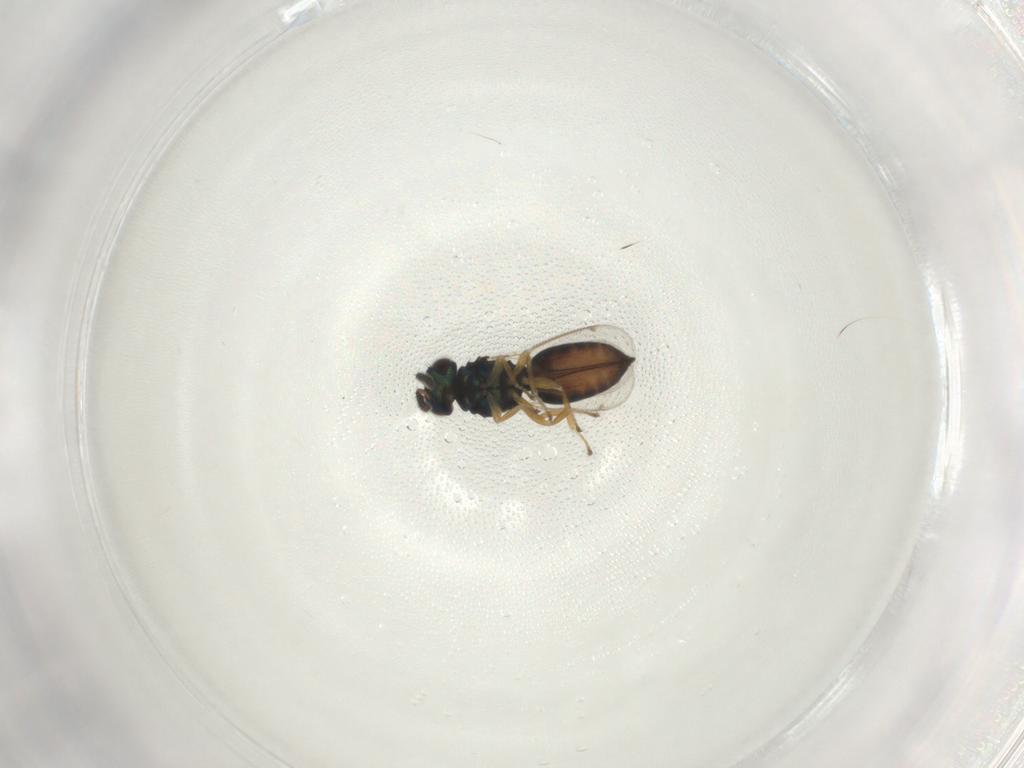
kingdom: Animalia
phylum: Arthropoda
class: Insecta
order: Hymenoptera
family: Eulophidae
